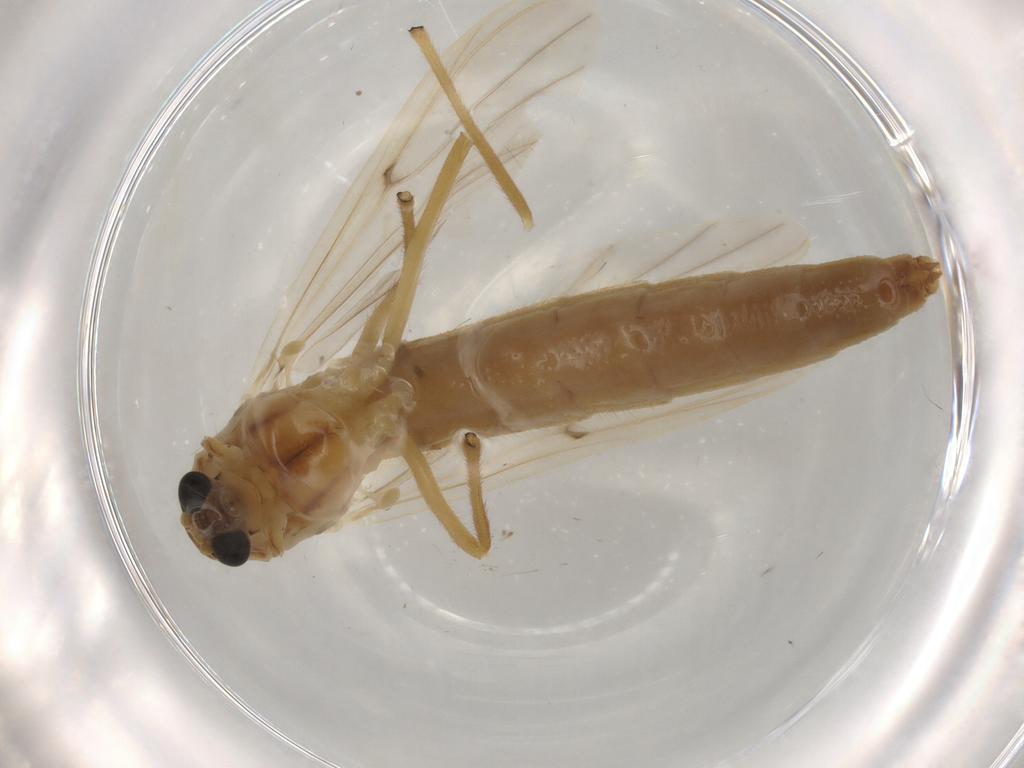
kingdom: Animalia
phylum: Arthropoda
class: Insecta
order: Diptera
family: Chironomidae
